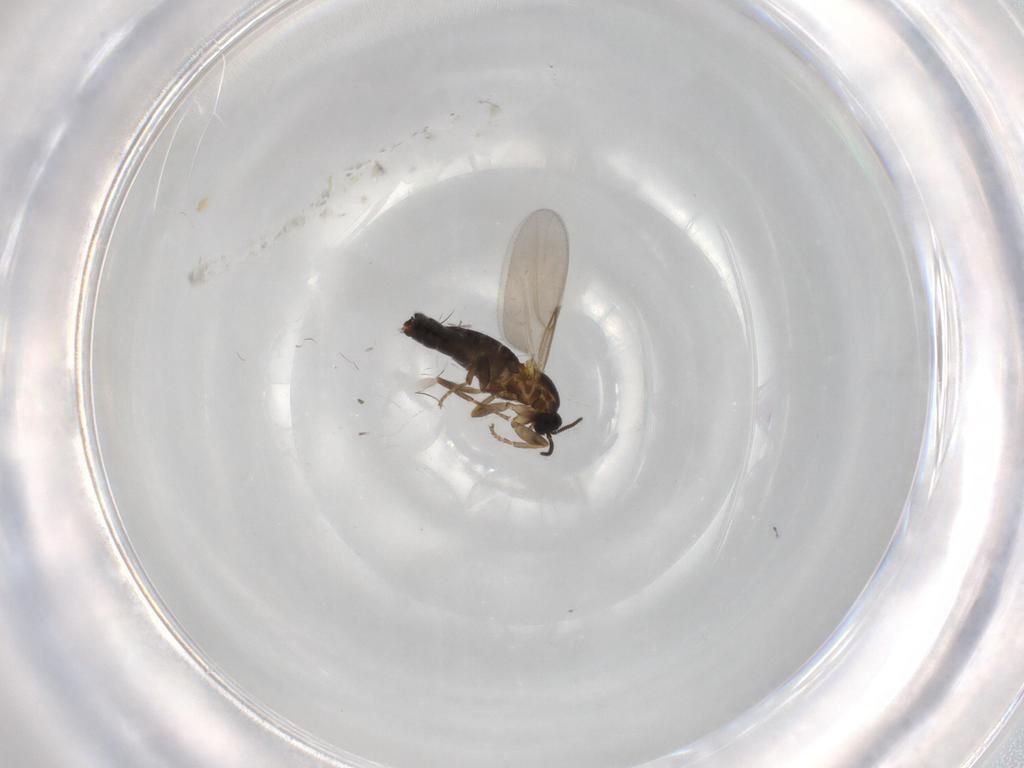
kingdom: Animalia
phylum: Arthropoda
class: Insecta
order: Diptera
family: Scatopsidae
